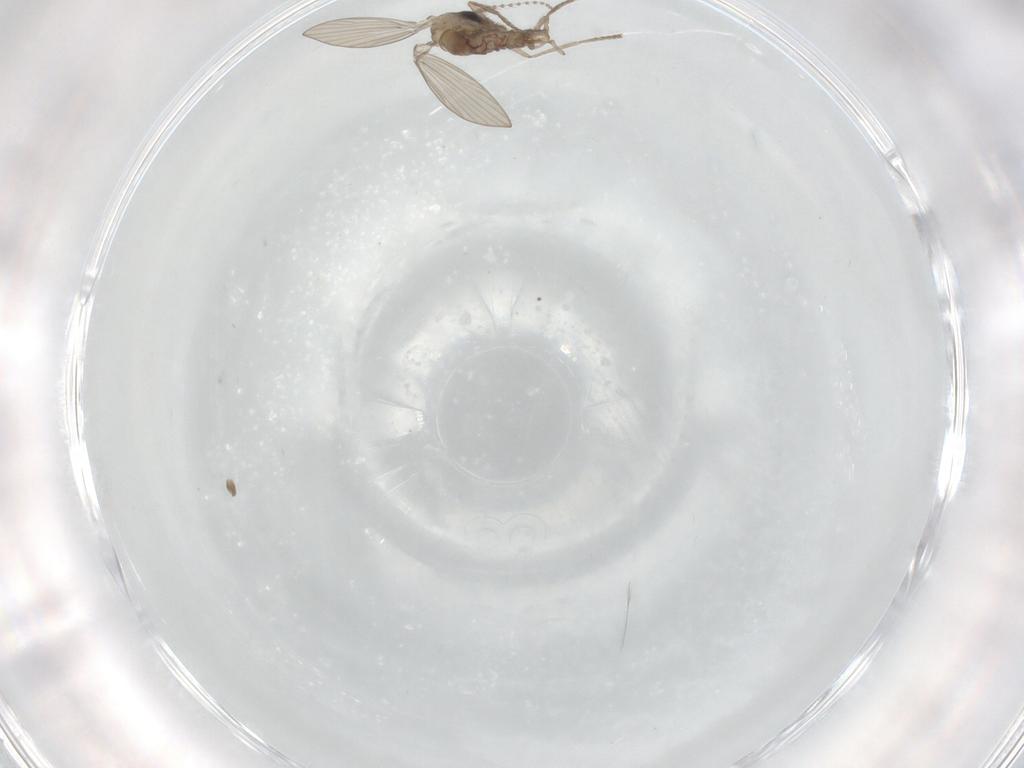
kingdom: Animalia
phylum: Arthropoda
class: Insecta
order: Diptera
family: Psychodidae
